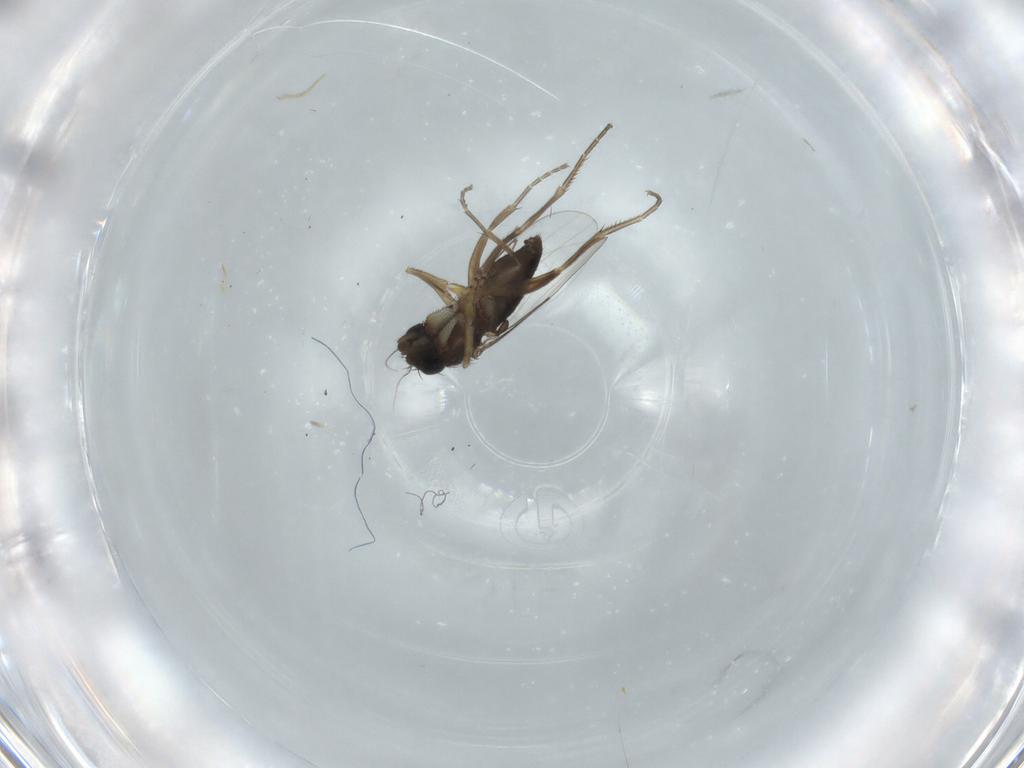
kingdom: Animalia
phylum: Arthropoda
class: Insecta
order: Diptera
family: Phoridae
